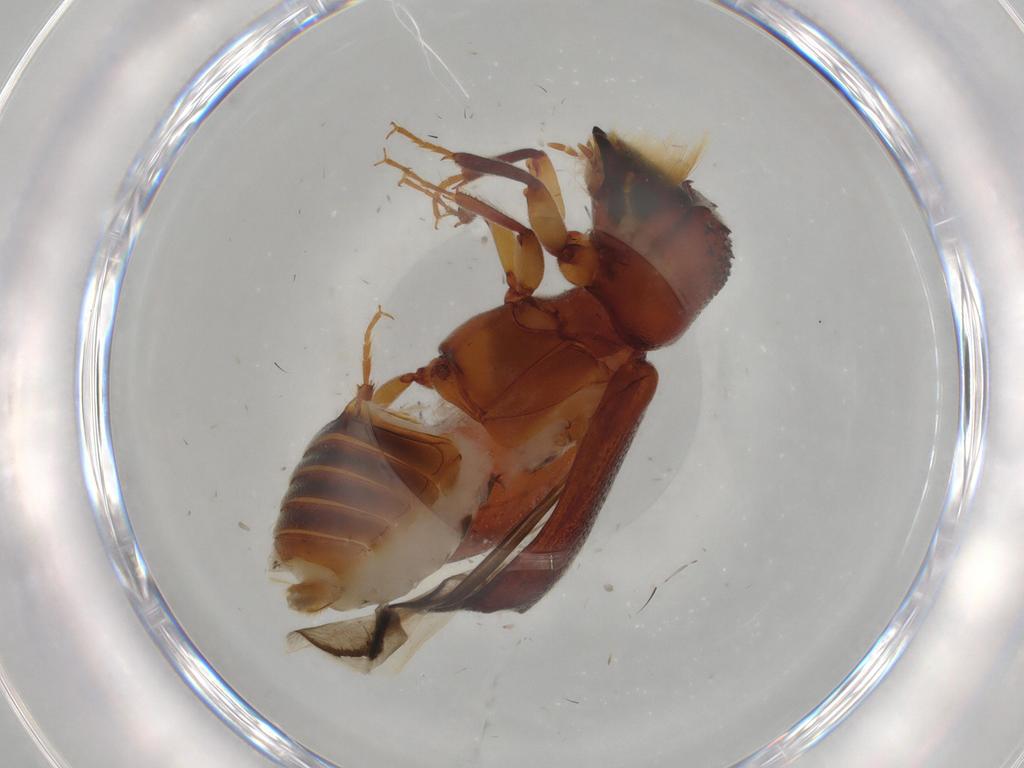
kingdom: Animalia
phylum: Arthropoda
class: Insecta
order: Coleoptera
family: Bostrichidae
